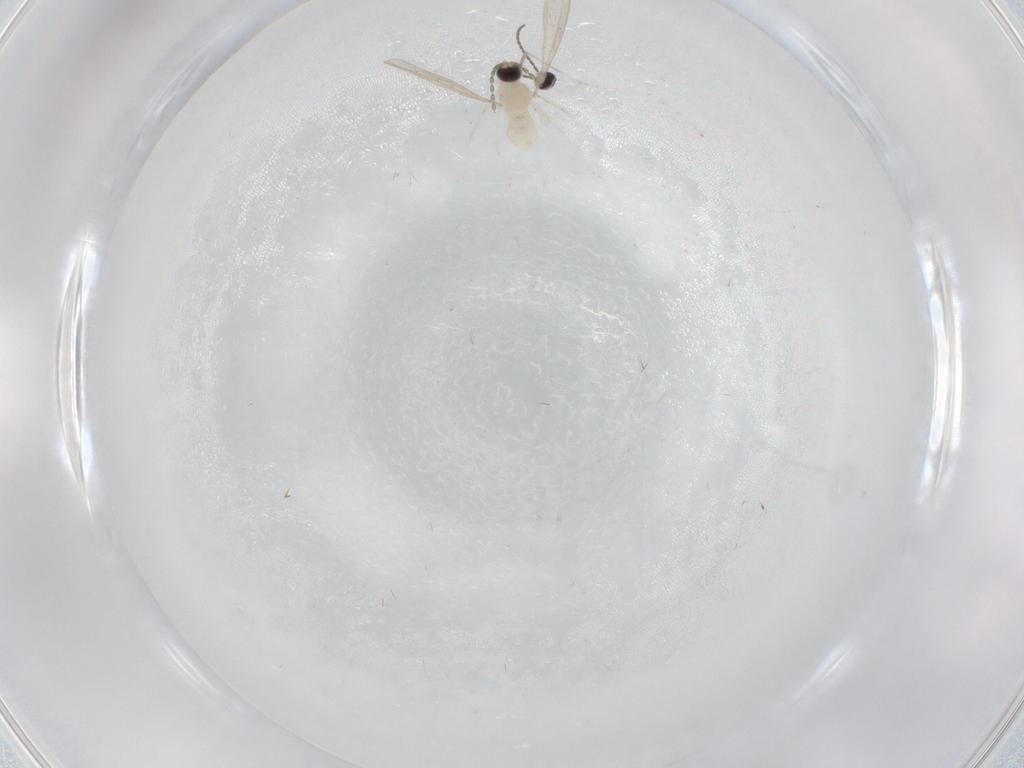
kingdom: Animalia
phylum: Arthropoda
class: Insecta
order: Diptera
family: Cecidomyiidae
